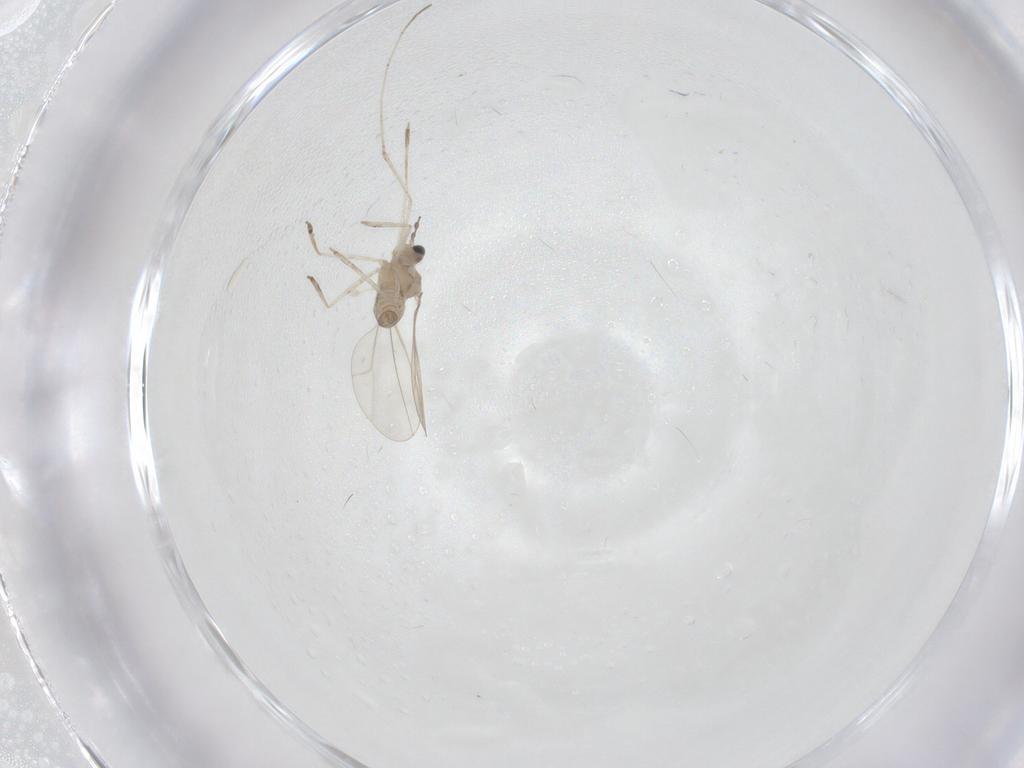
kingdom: Animalia
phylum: Arthropoda
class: Insecta
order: Diptera
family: Cecidomyiidae
